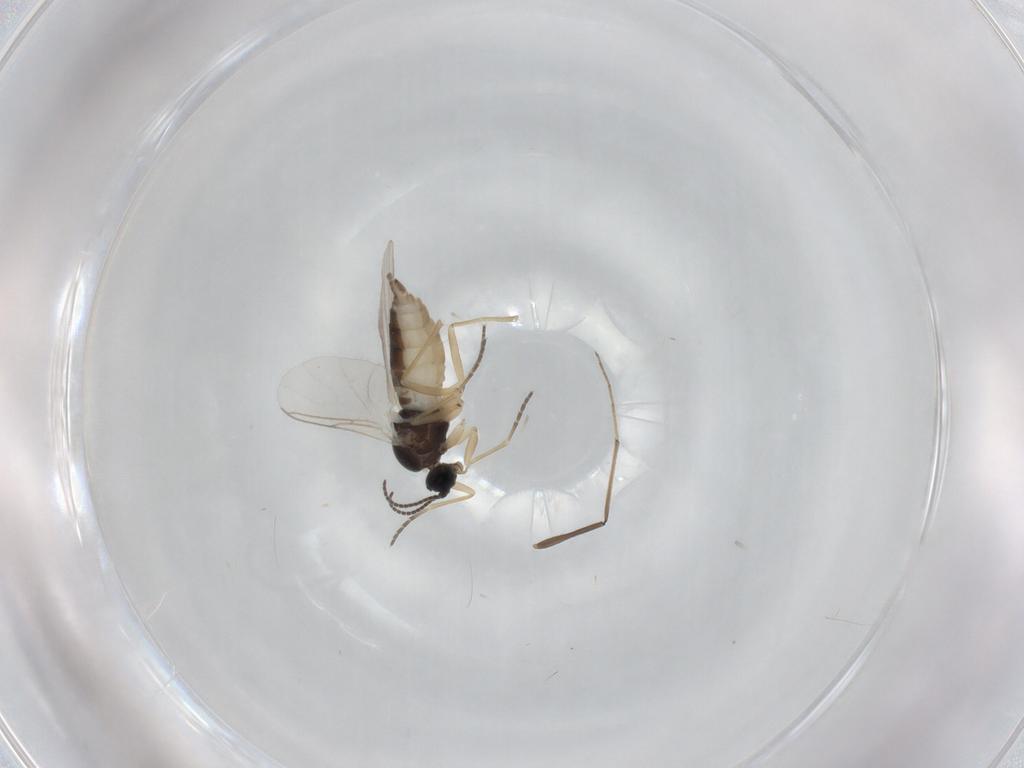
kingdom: Animalia
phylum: Arthropoda
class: Insecta
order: Diptera
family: Sciaridae
